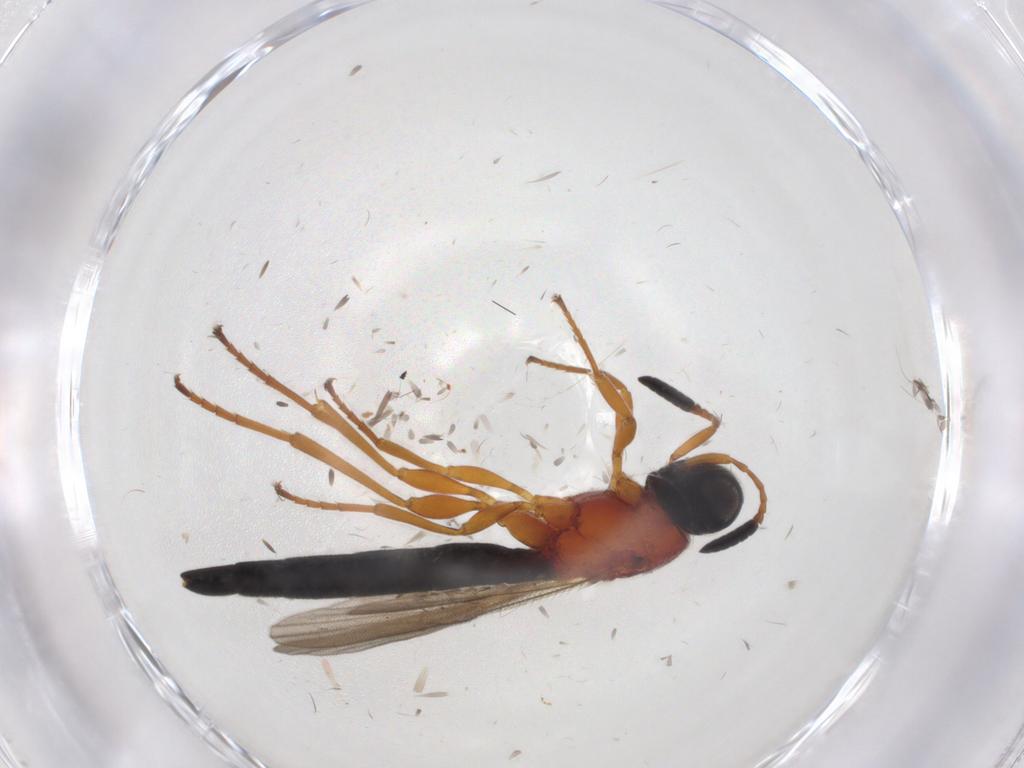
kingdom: Animalia
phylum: Arthropoda
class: Insecta
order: Hymenoptera
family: Scelionidae
